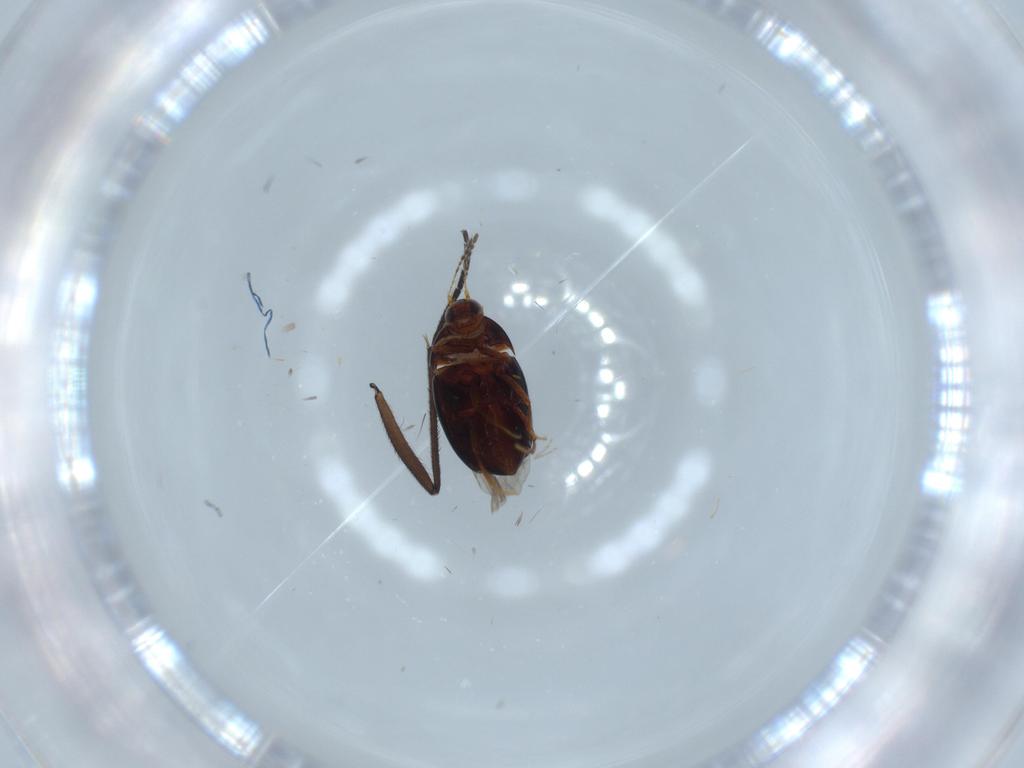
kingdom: Animalia
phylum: Arthropoda
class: Insecta
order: Coleoptera
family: Staphylinidae
